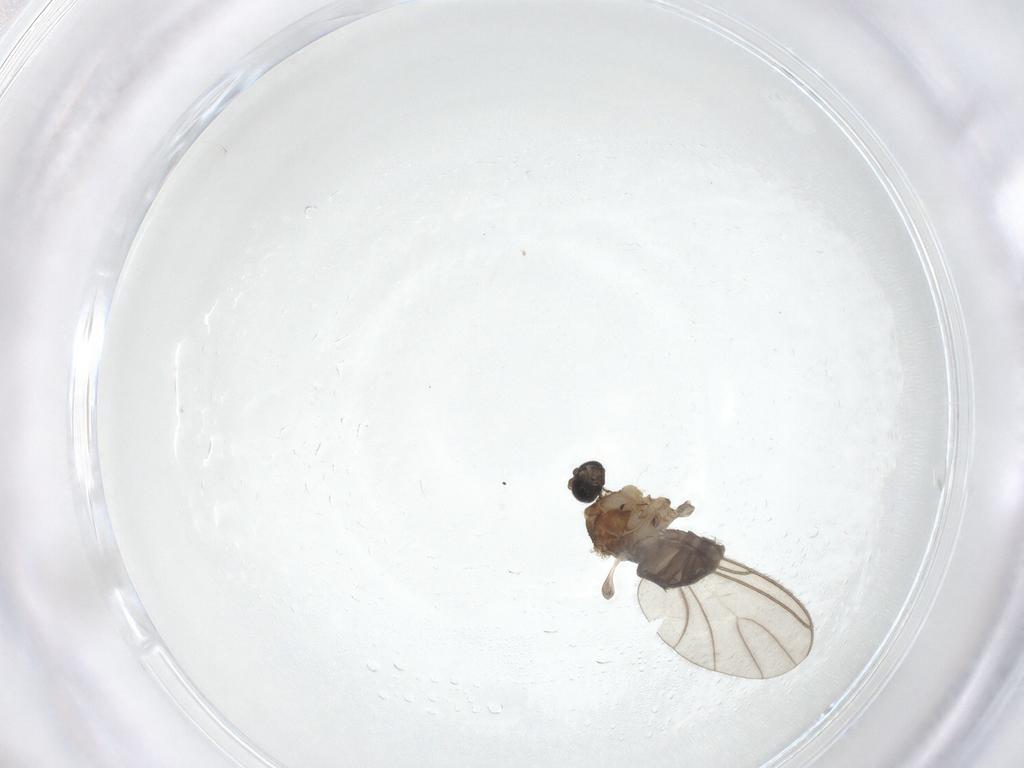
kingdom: Animalia
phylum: Arthropoda
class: Insecta
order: Diptera
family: Sciaridae
